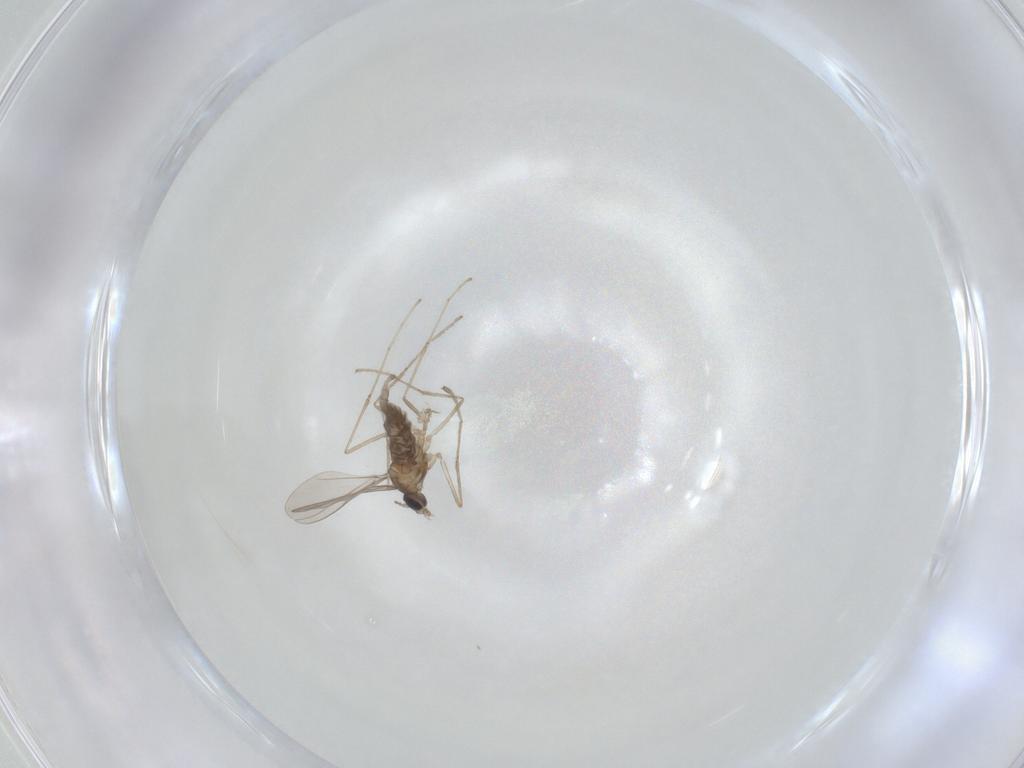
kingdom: Animalia
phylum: Arthropoda
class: Insecta
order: Diptera
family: Cecidomyiidae
